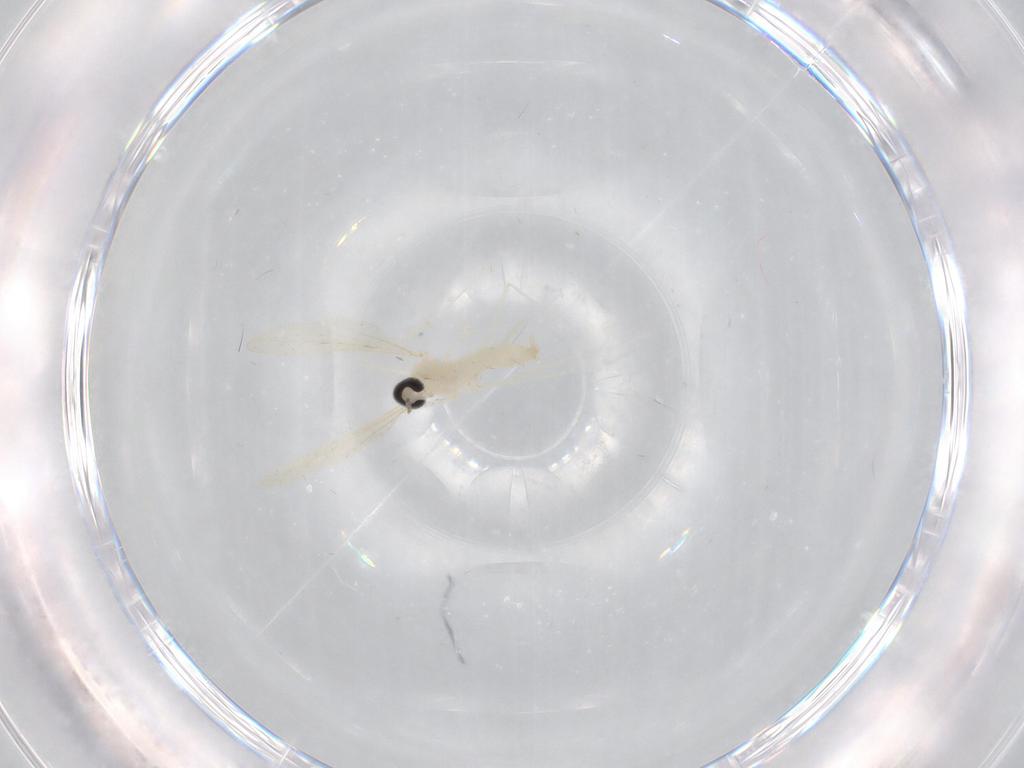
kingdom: Animalia
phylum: Arthropoda
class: Insecta
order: Diptera
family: Cecidomyiidae
